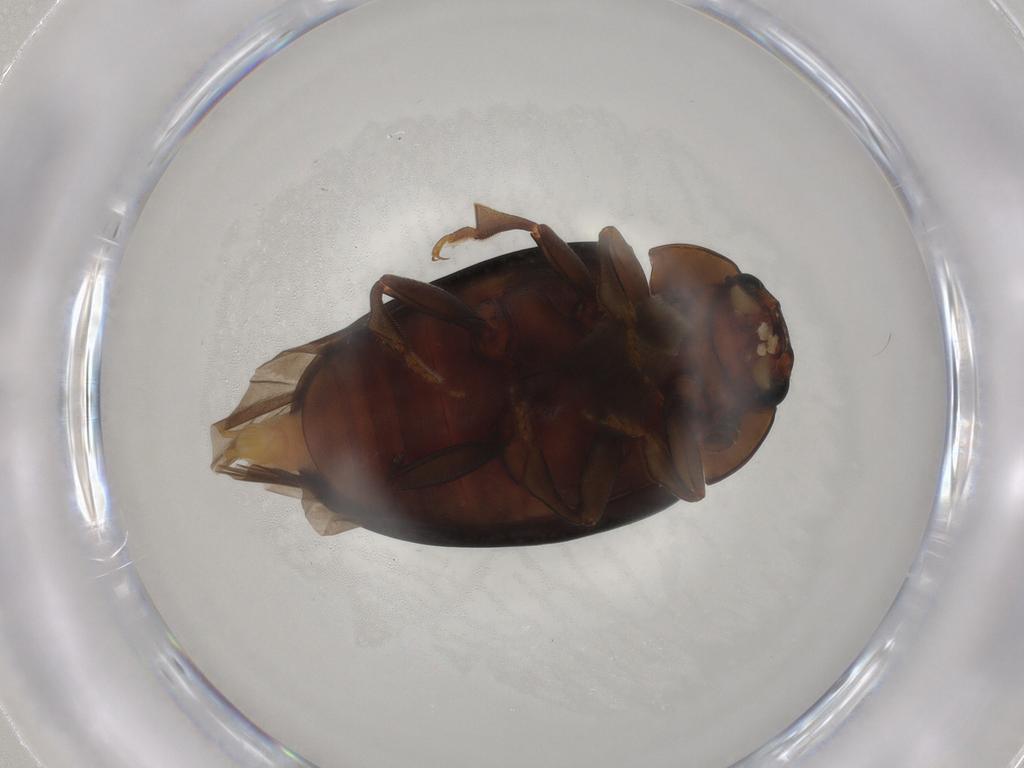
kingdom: Animalia
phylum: Arthropoda
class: Insecta
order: Coleoptera
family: Erotylidae
